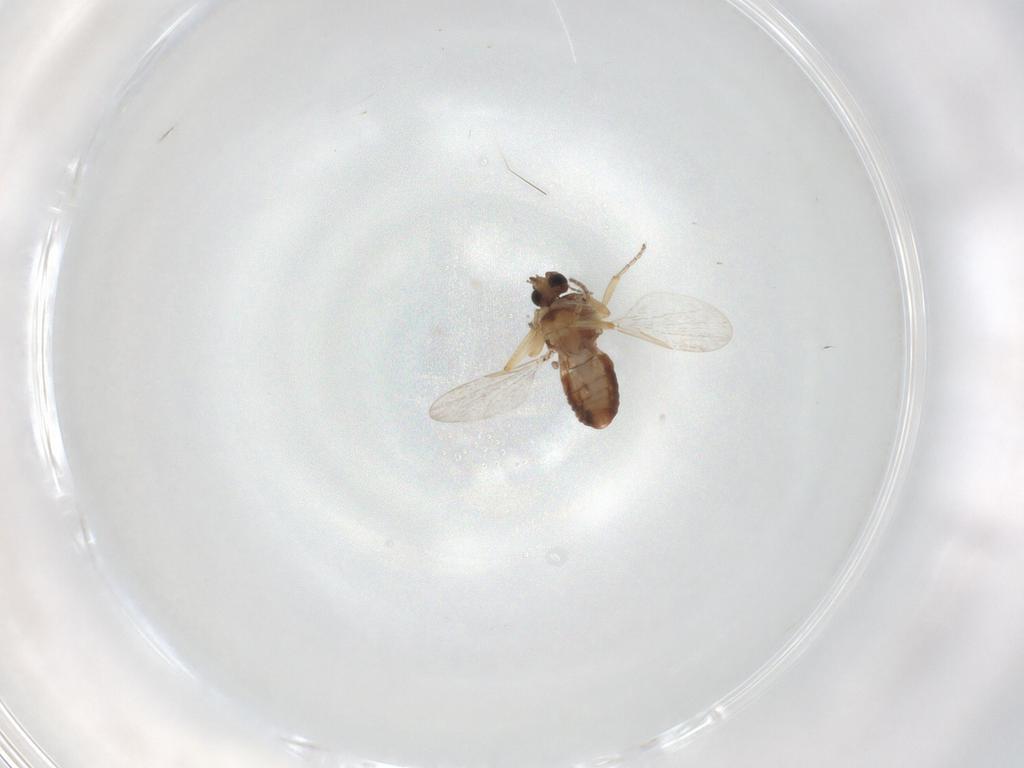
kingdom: Animalia
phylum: Arthropoda
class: Insecta
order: Diptera
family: Ceratopogonidae
